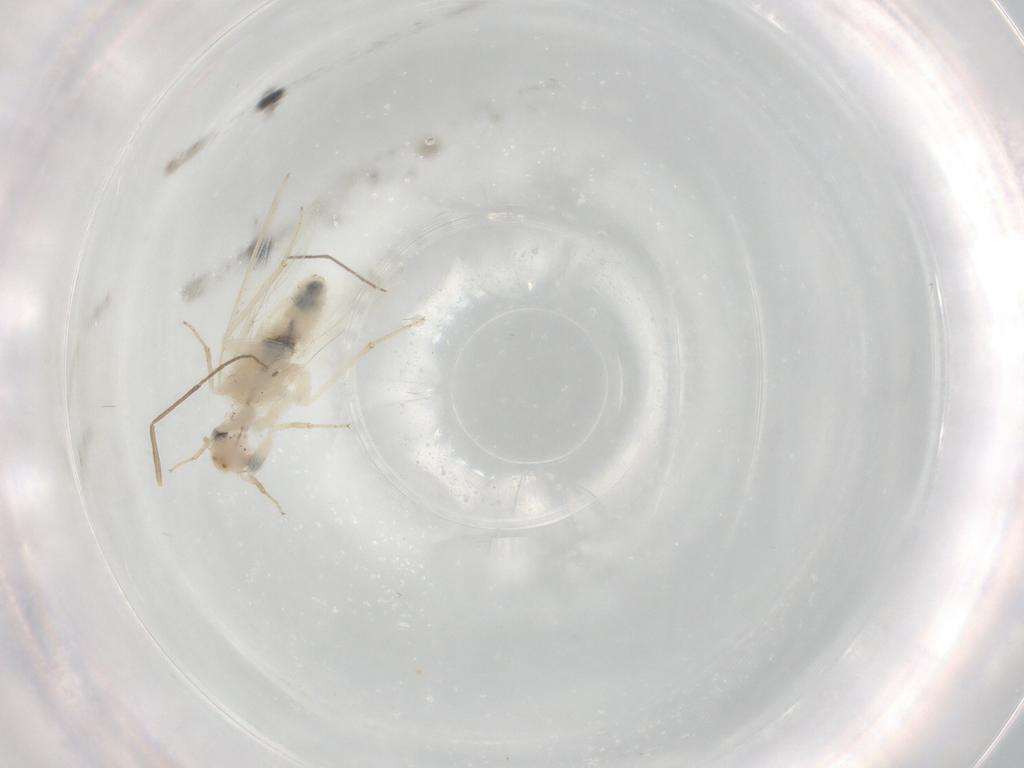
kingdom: Animalia
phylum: Arthropoda
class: Insecta
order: Psocodea
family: Lepidopsocidae
